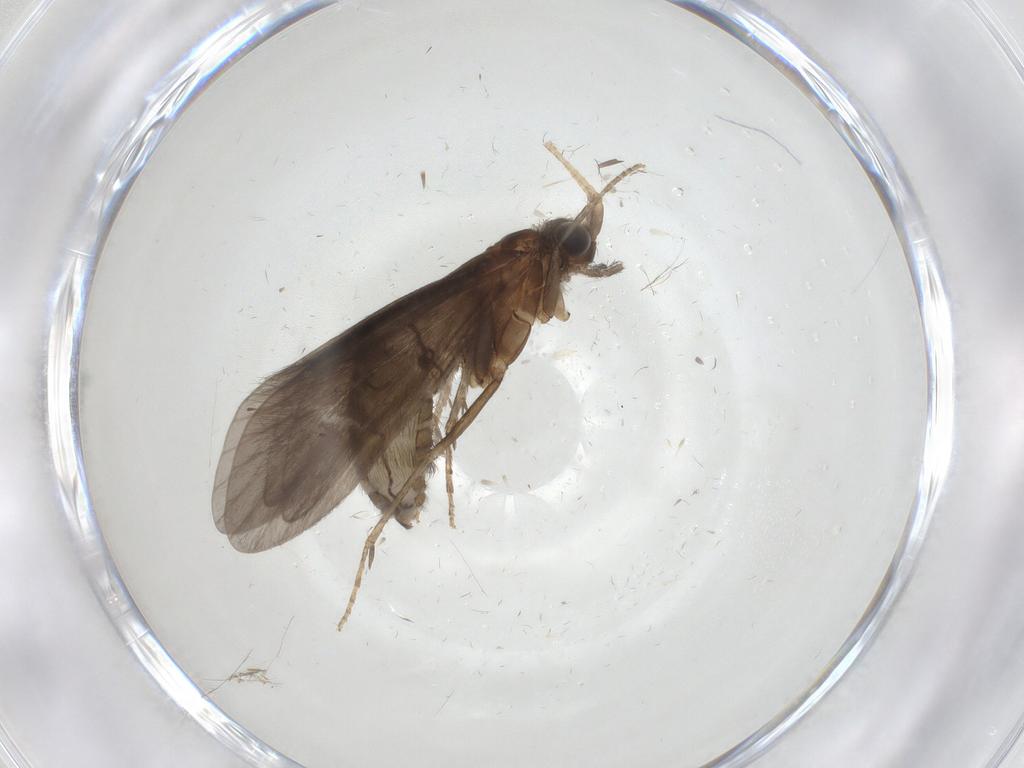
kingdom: Animalia
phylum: Arthropoda
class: Insecta
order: Trichoptera
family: Helicopsychidae
